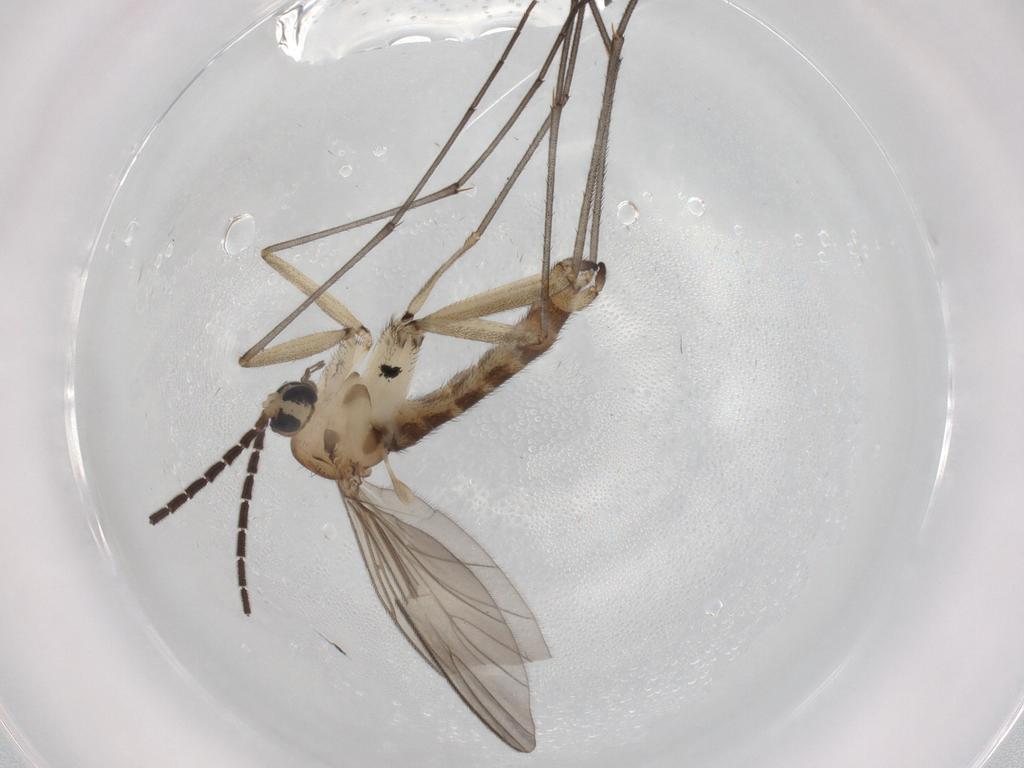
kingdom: Animalia
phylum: Arthropoda
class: Insecta
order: Diptera
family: Sciaridae
